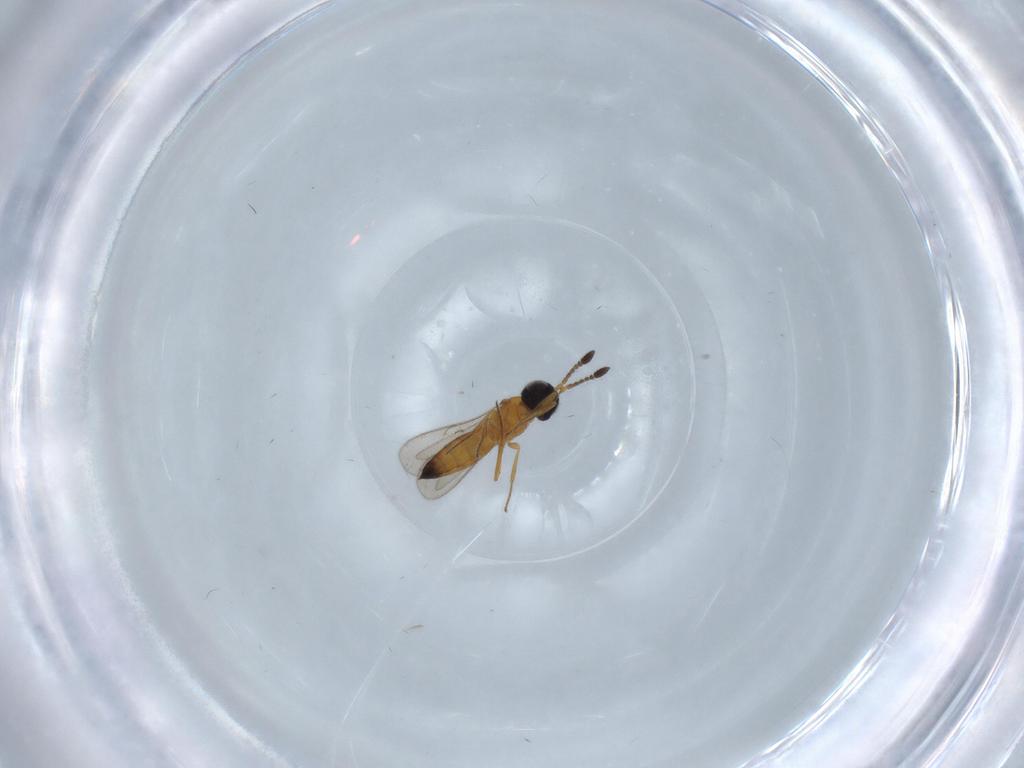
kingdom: Animalia
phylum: Arthropoda
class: Insecta
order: Hymenoptera
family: Scelionidae
